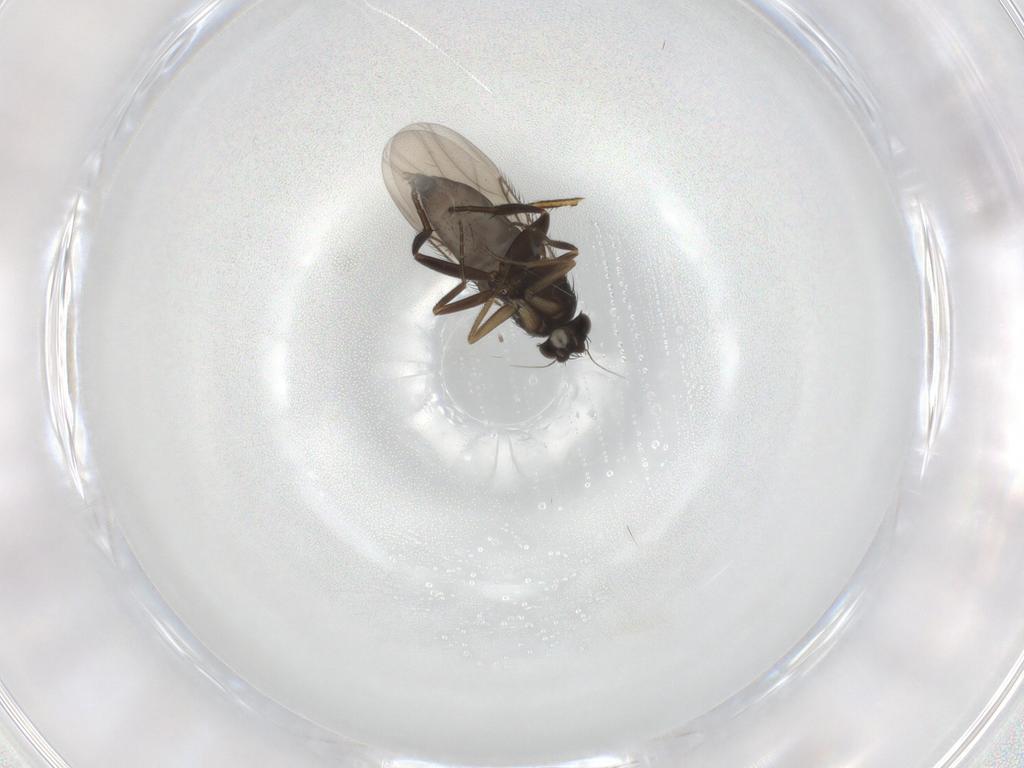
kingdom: Animalia
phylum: Arthropoda
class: Insecta
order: Diptera
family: Phoridae
